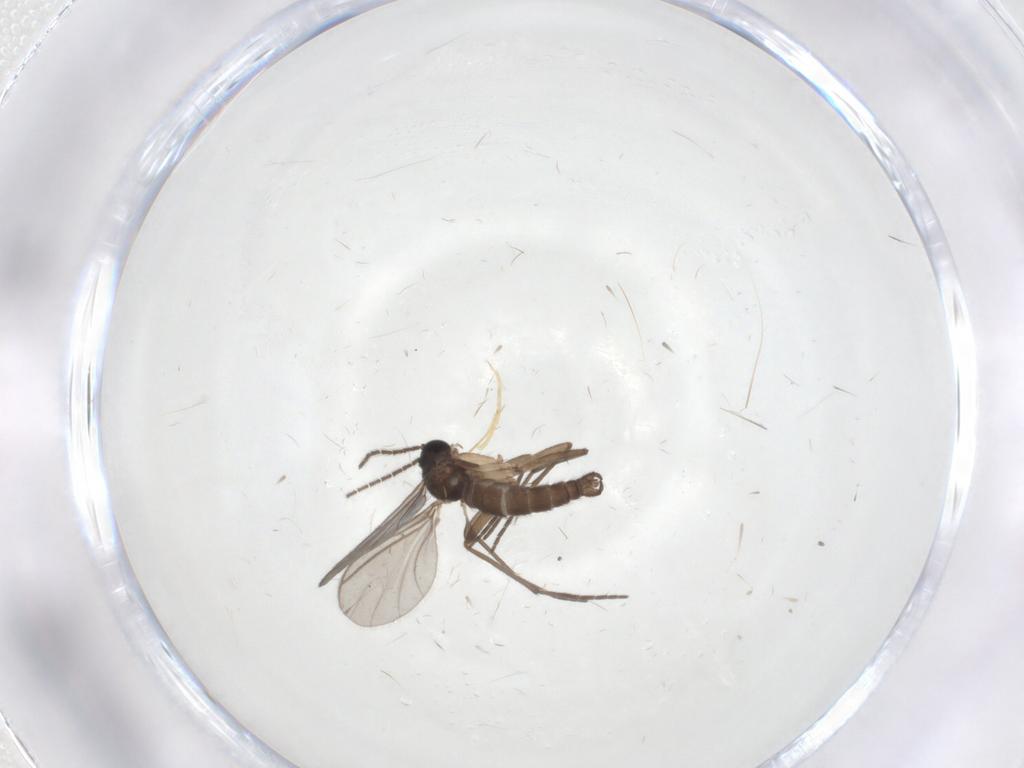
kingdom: Animalia
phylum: Arthropoda
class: Insecta
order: Diptera
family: Sciaridae
